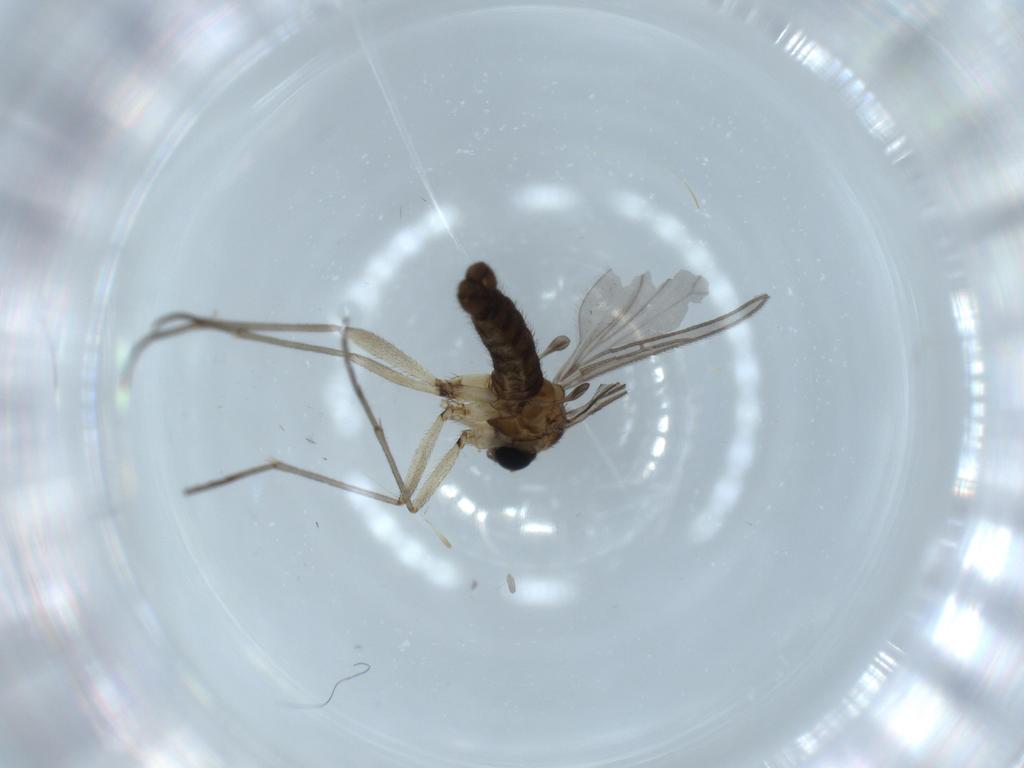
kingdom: Animalia
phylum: Arthropoda
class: Insecta
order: Diptera
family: Sciaridae
